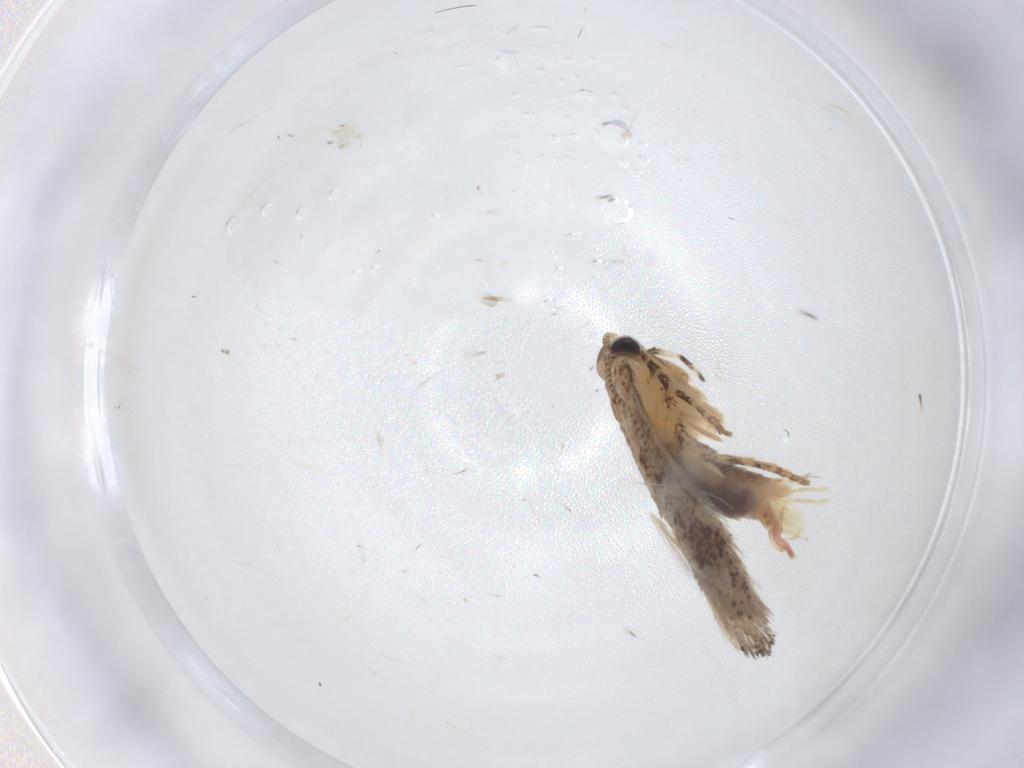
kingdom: Animalia
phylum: Arthropoda
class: Insecta
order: Lepidoptera
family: Gelechiidae
